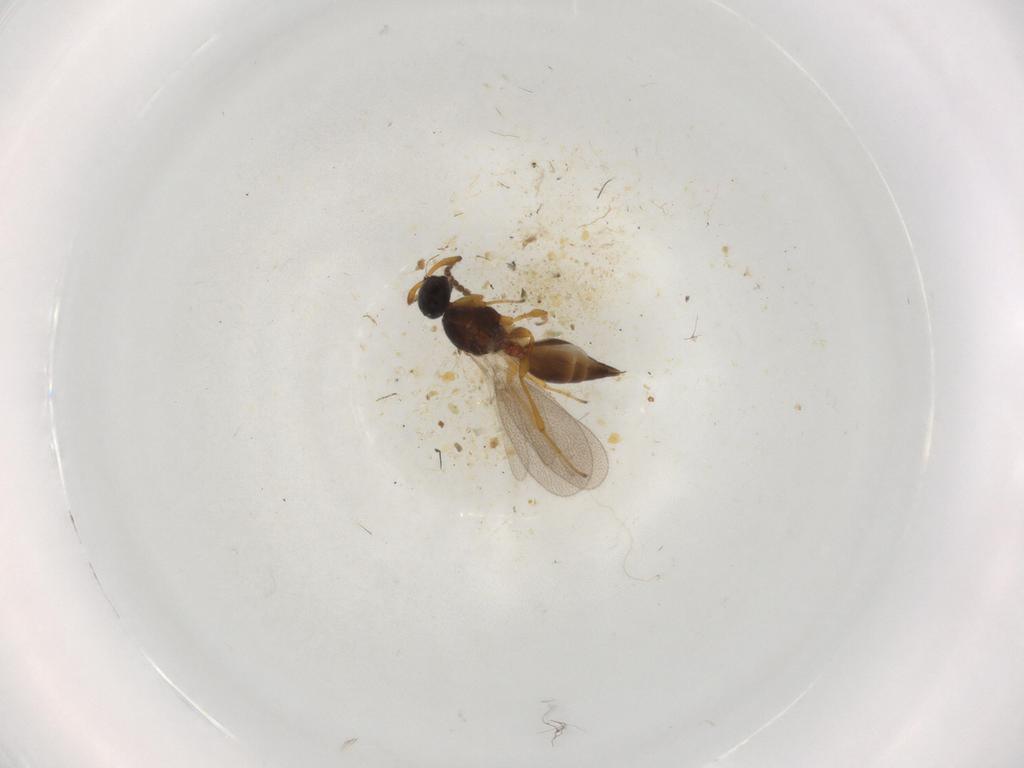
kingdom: Animalia
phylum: Arthropoda
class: Insecta
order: Diptera
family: Mythicomyiidae
